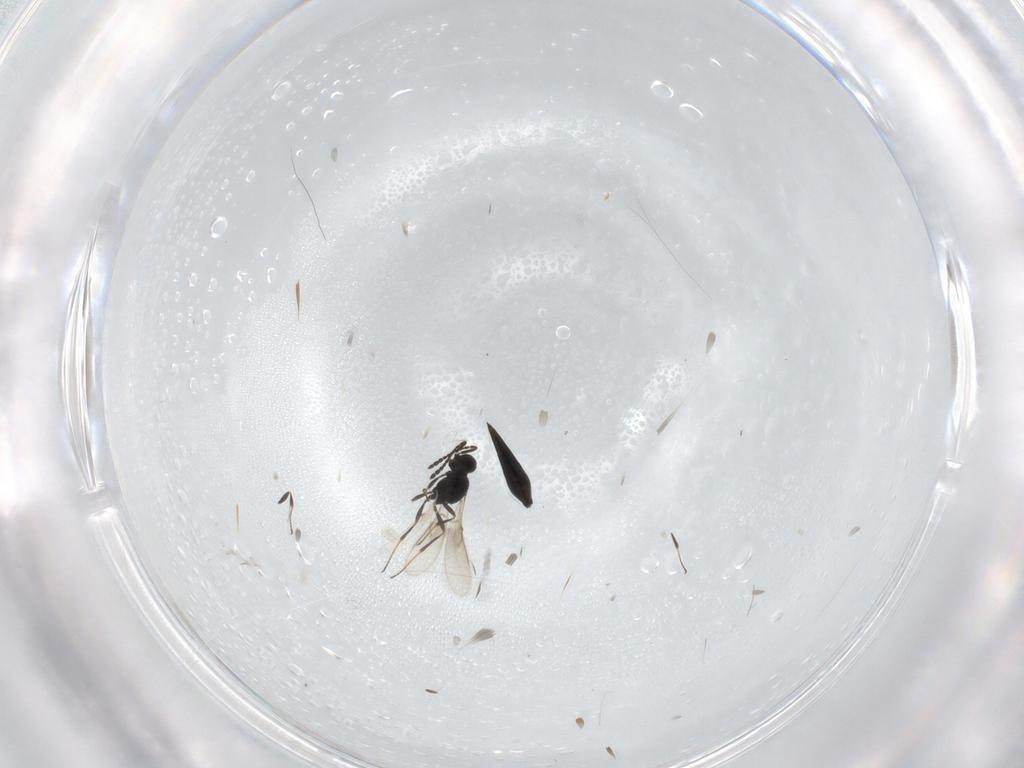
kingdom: Animalia
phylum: Arthropoda
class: Insecta
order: Hymenoptera
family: Scelionidae
